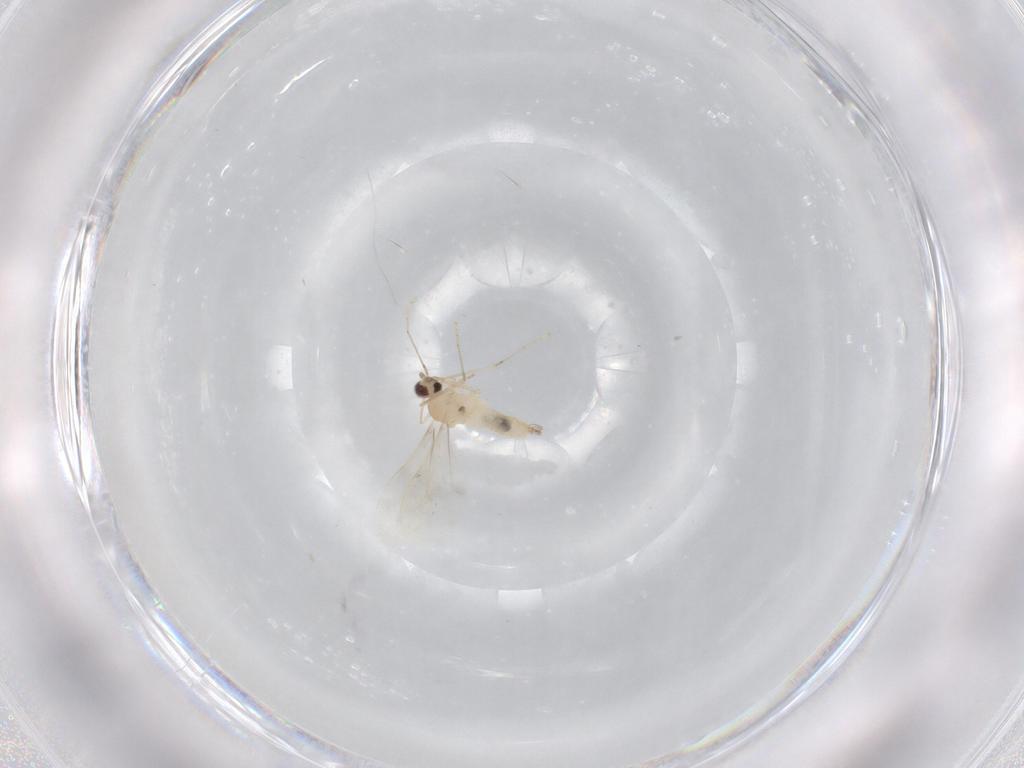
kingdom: Animalia
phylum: Arthropoda
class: Insecta
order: Diptera
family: Cecidomyiidae
